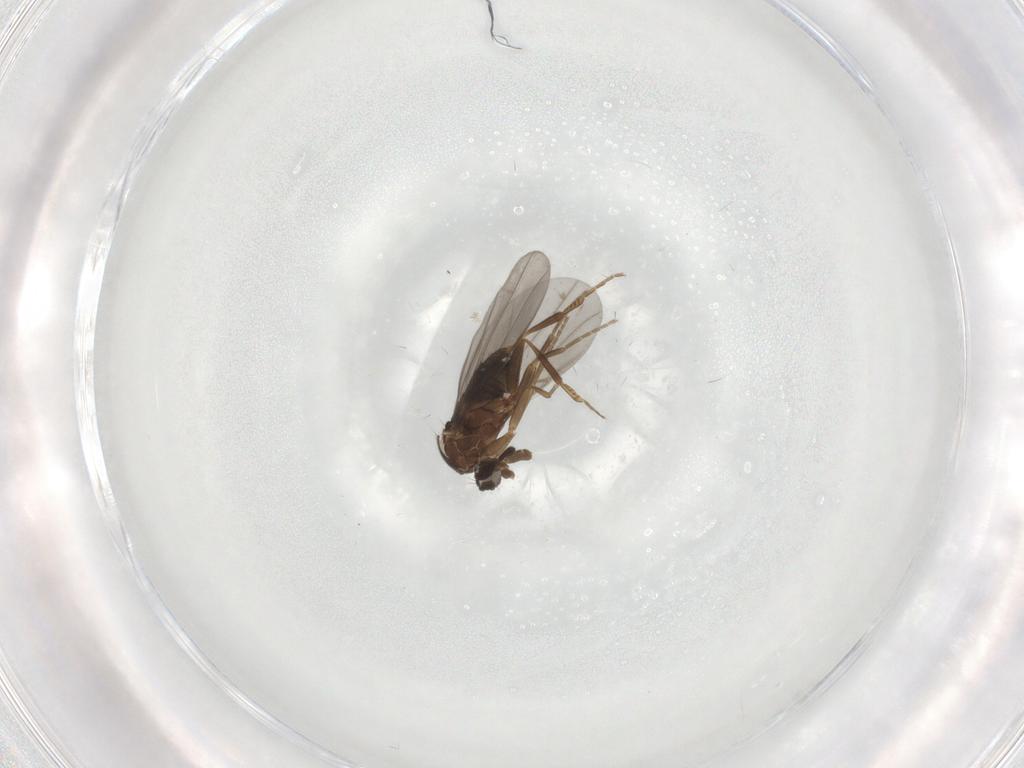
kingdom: Animalia
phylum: Arthropoda
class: Insecta
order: Diptera
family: Phoridae
